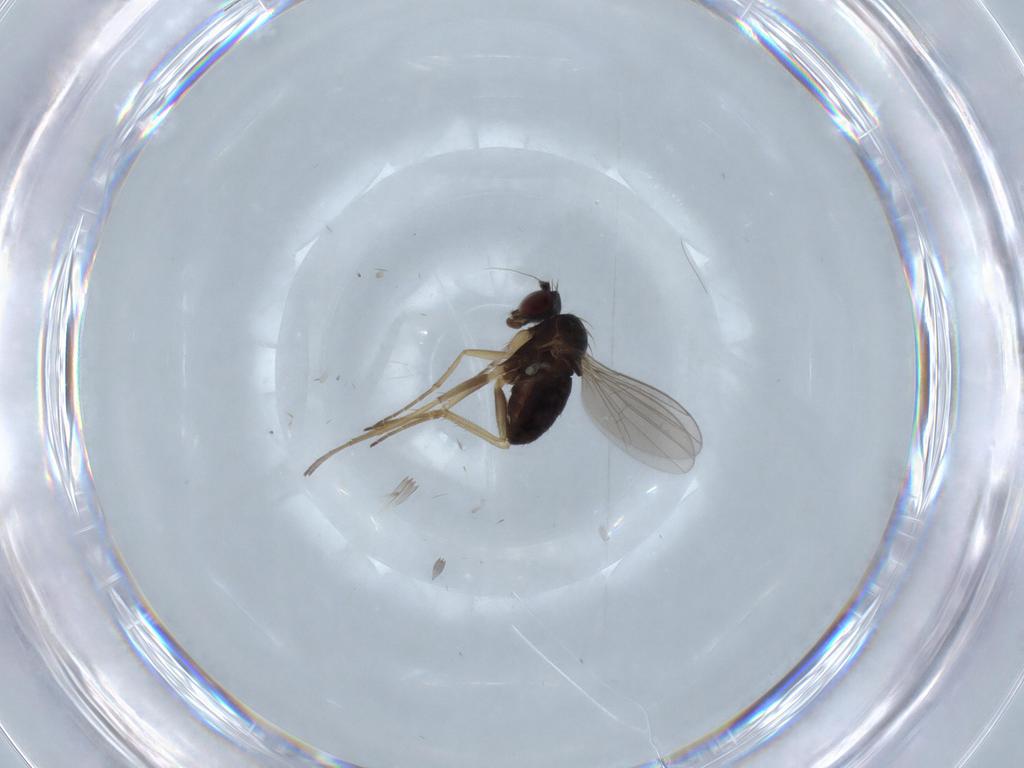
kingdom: Animalia
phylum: Arthropoda
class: Insecta
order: Diptera
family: Dolichopodidae
